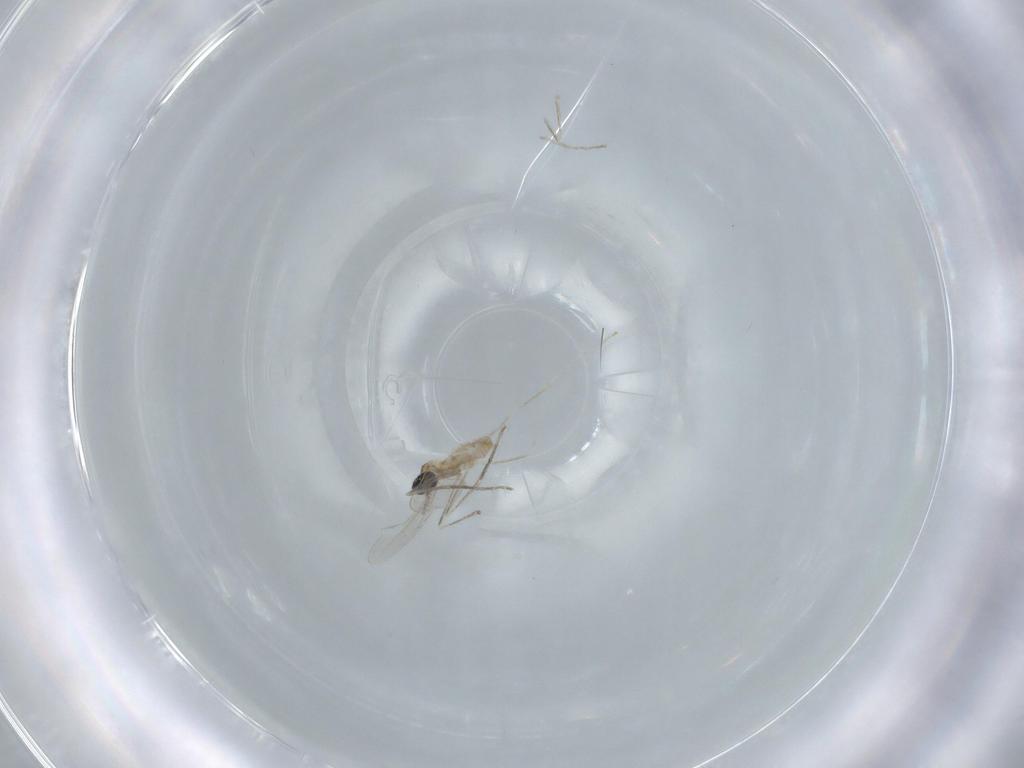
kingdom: Animalia
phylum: Arthropoda
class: Insecta
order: Diptera
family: Cecidomyiidae
